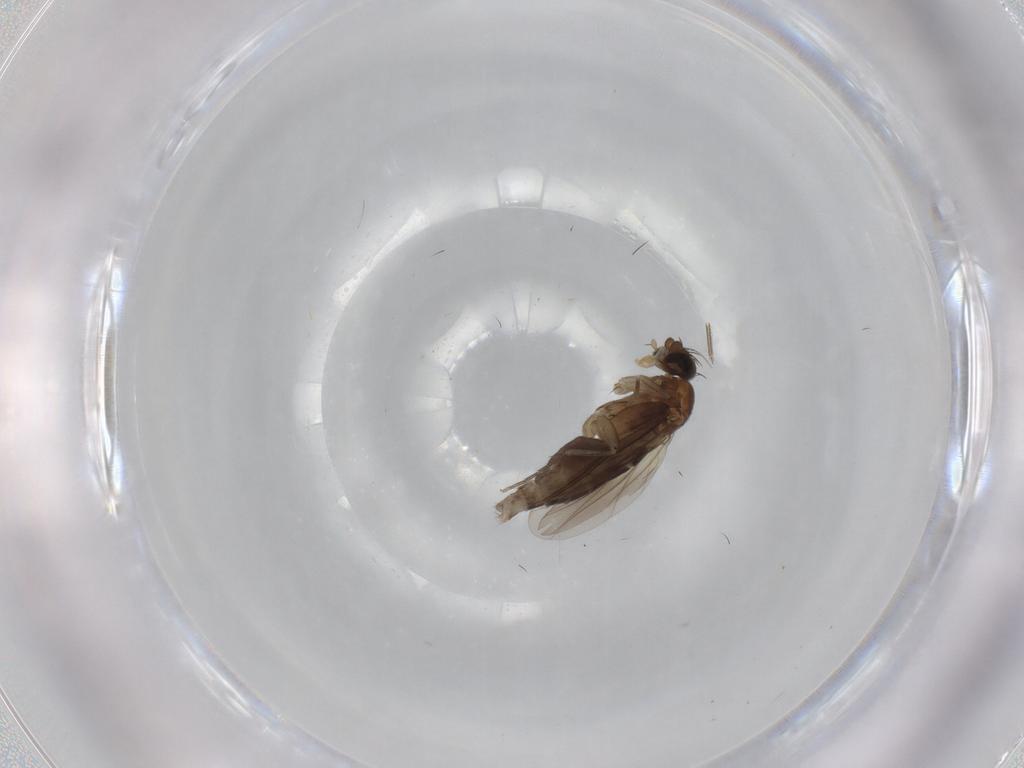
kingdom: Animalia
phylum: Arthropoda
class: Insecta
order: Diptera
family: Phoridae
